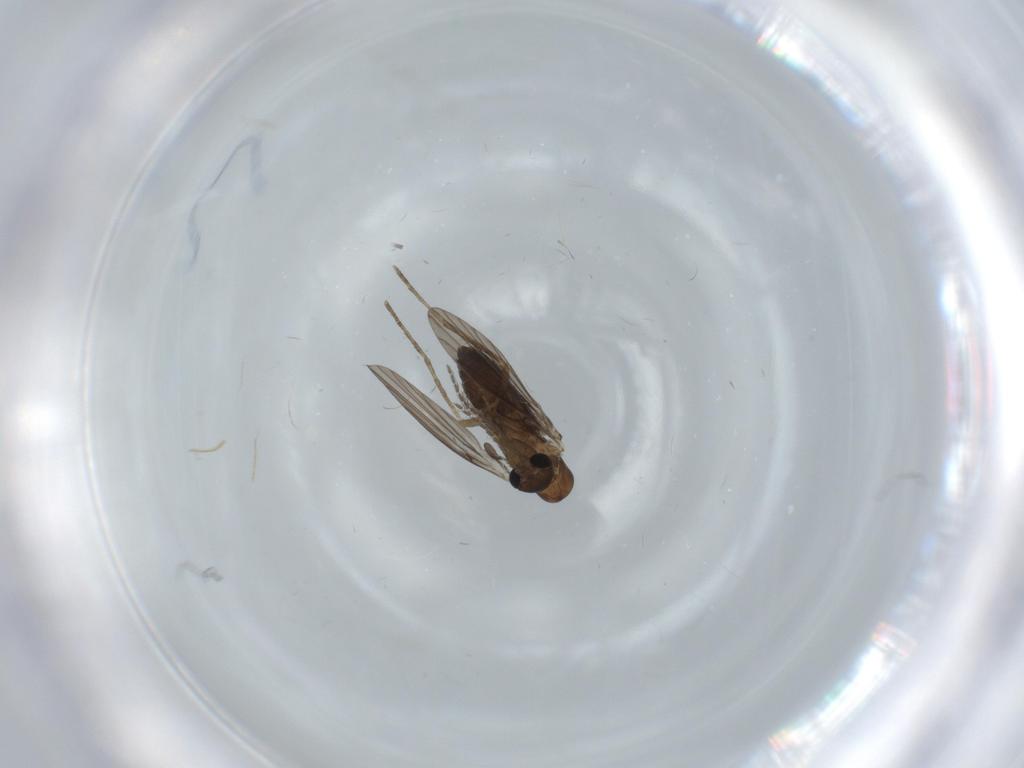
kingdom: Animalia
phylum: Arthropoda
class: Insecta
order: Diptera
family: Psychodidae
